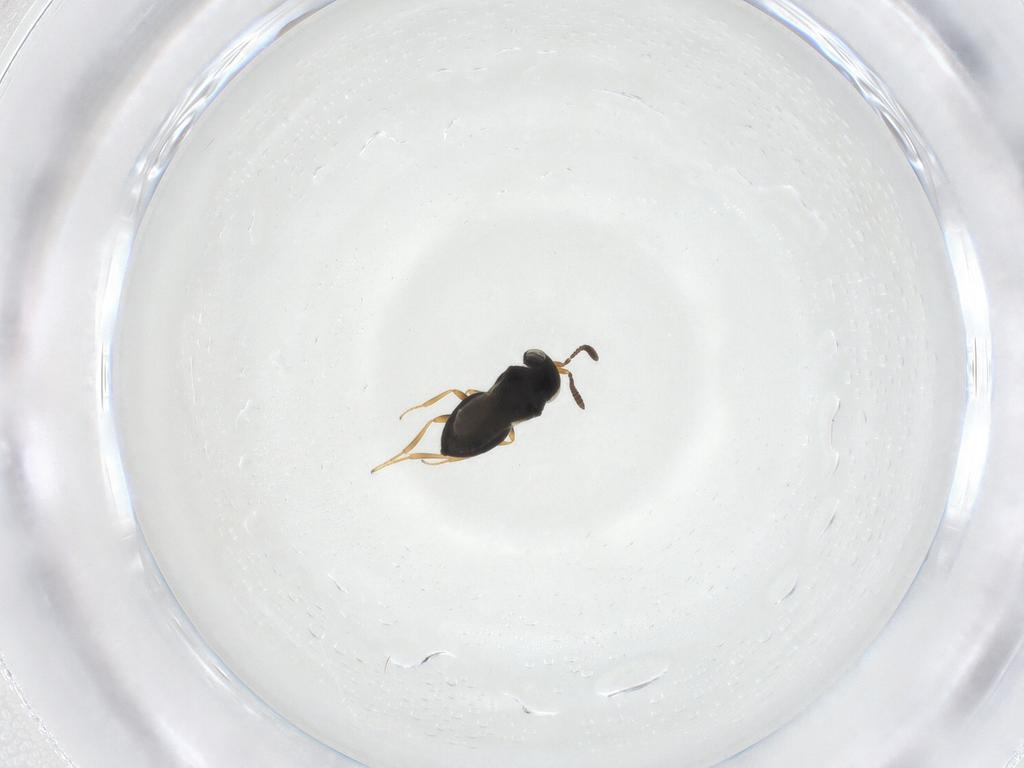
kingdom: Animalia
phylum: Arthropoda
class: Insecta
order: Hymenoptera
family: Scelionidae
